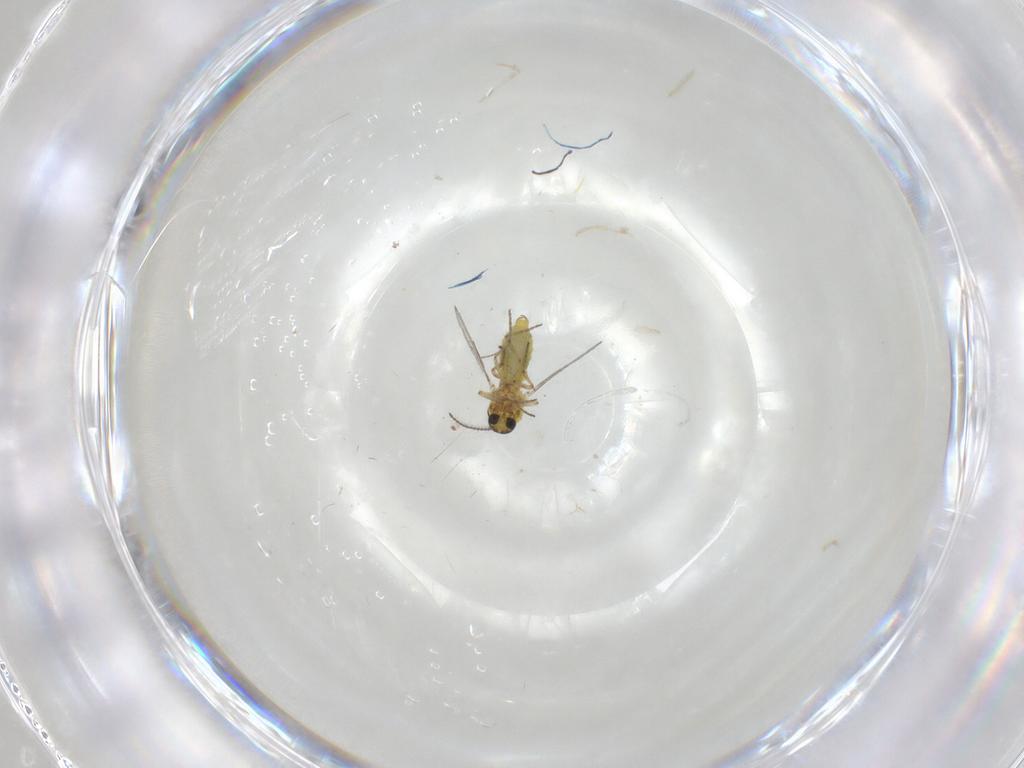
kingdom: Animalia
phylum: Arthropoda
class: Insecta
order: Diptera
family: Ceratopogonidae
